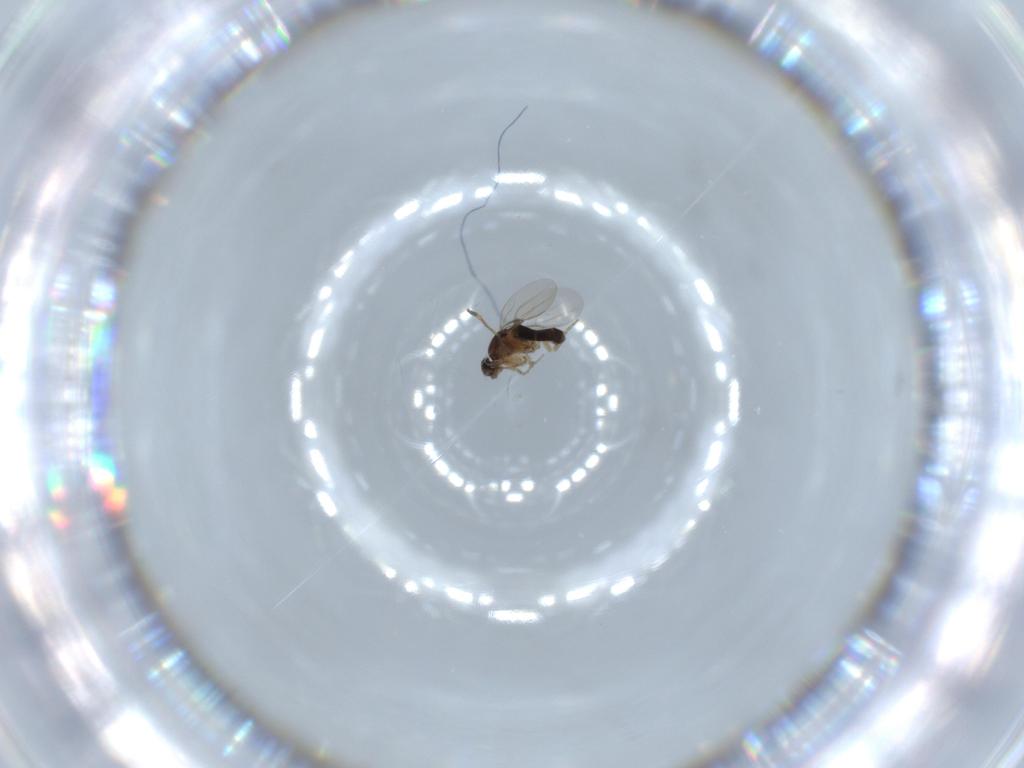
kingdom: Animalia
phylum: Arthropoda
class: Insecta
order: Diptera
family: Phoridae
